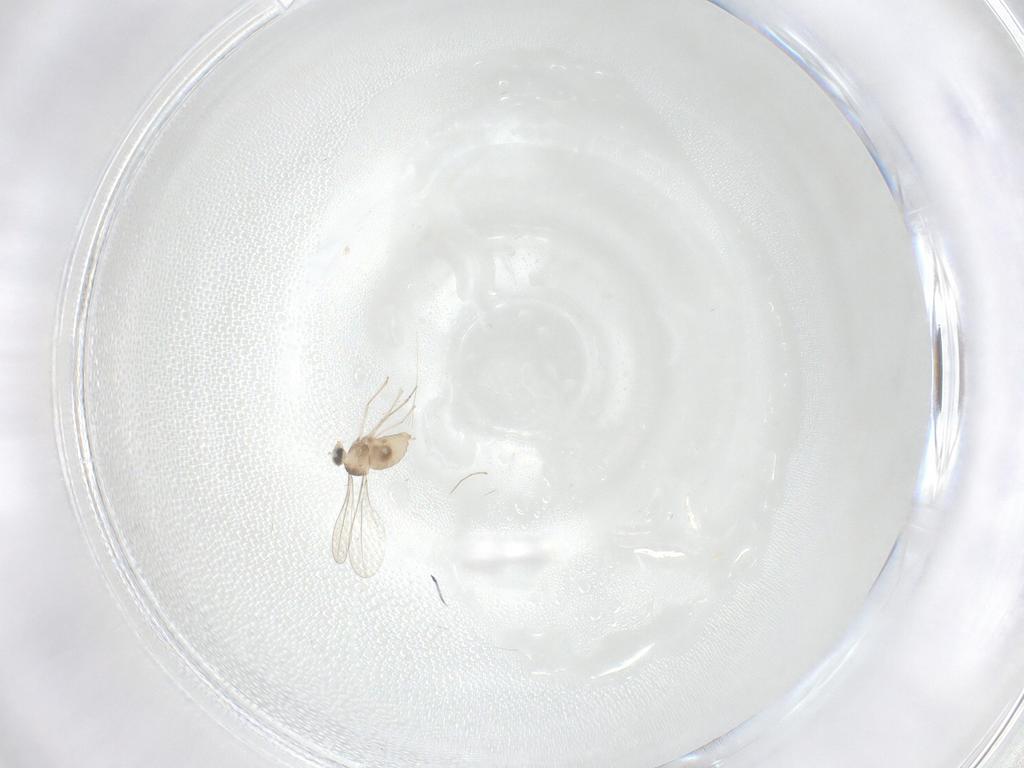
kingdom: Animalia
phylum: Arthropoda
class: Insecta
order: Diptera
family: Cecidomyiidae
